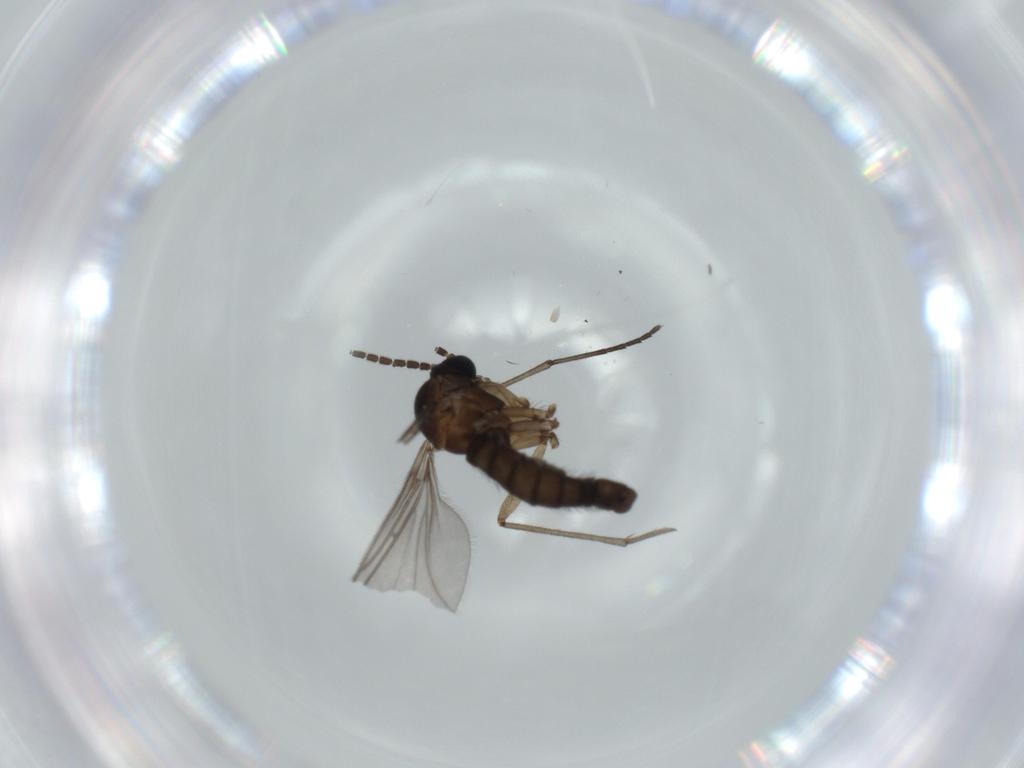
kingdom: Animalia
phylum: Arthropoda
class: Insecta
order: Diptera
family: Sciaridae
